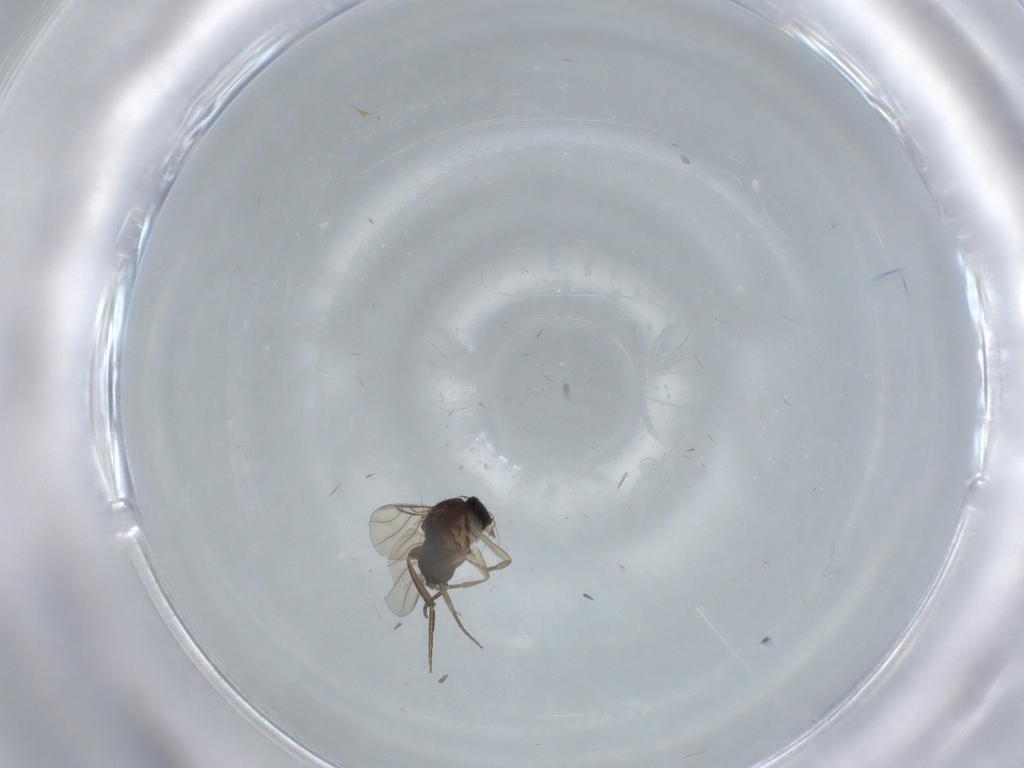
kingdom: Animalia
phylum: Arthropoda
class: Insecta
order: Diptera
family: Phoridae
